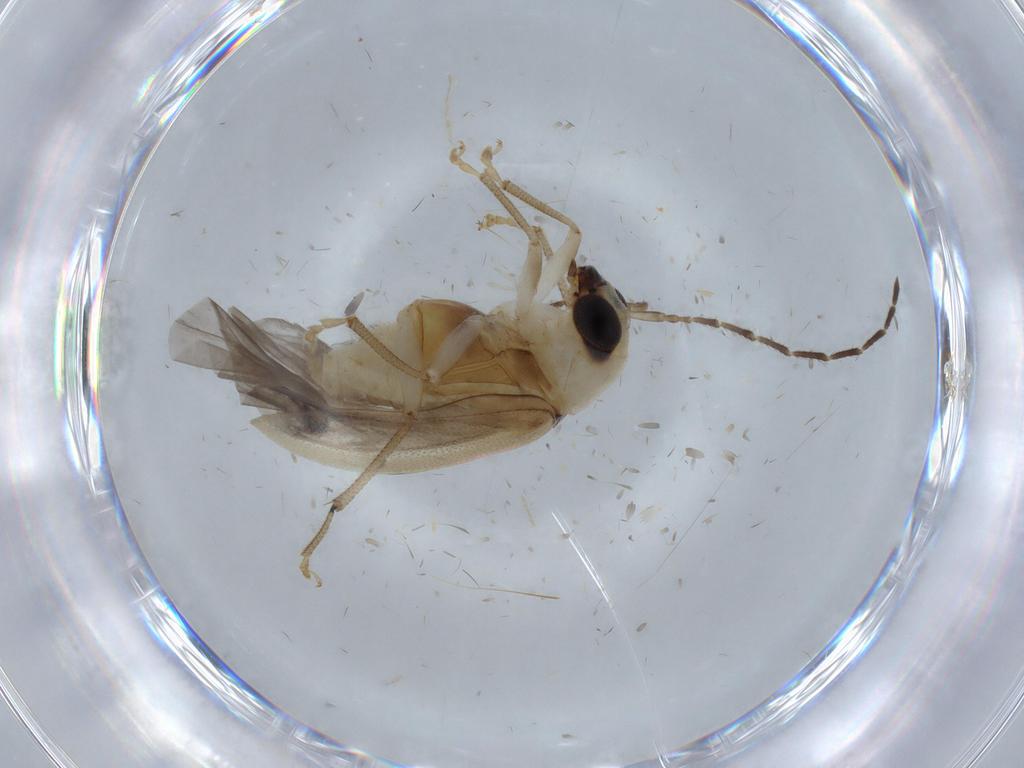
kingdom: Animalia
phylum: Arthropoda
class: Insecta
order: Coleoptera
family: Chrysomelidae
